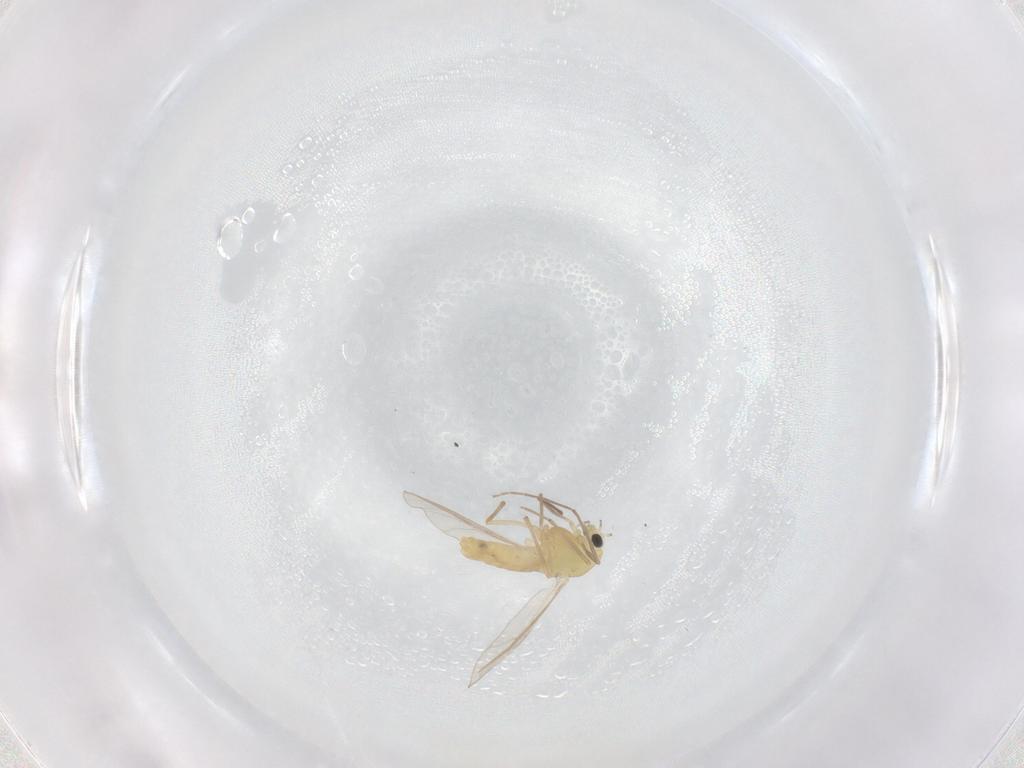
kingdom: Animalia
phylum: Arthropoda
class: Insecta
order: Diptera
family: Chironomidae
